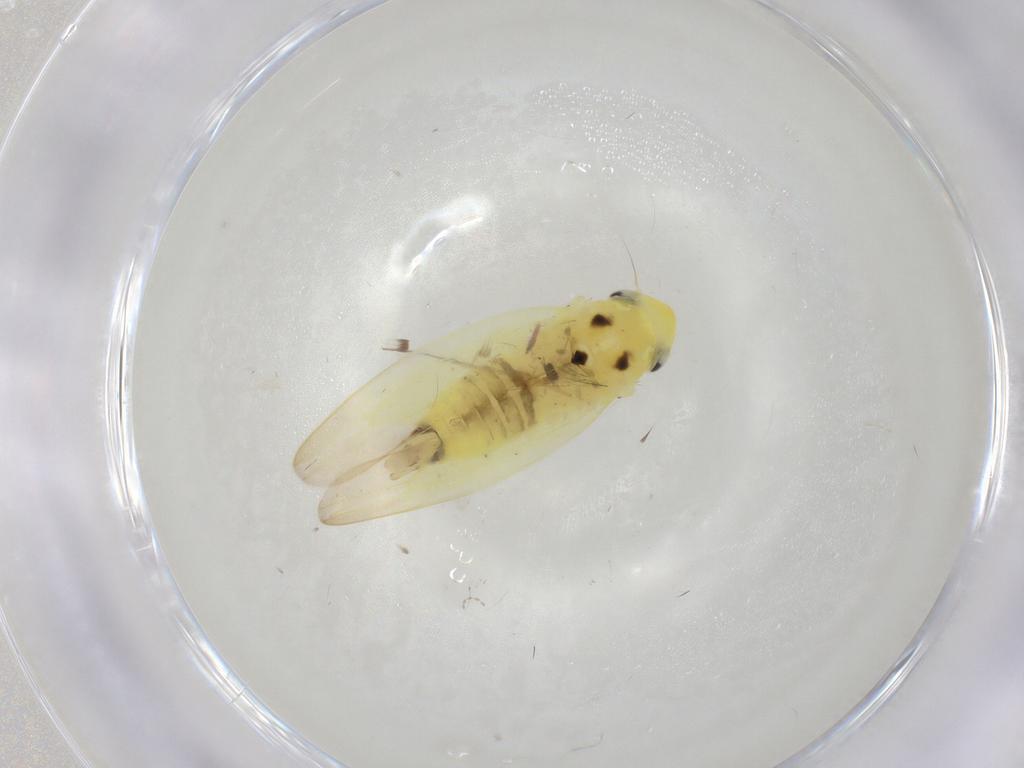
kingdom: Animalia
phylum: Arthropoda
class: Insecta
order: Hemiptera
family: Cicadellidae
